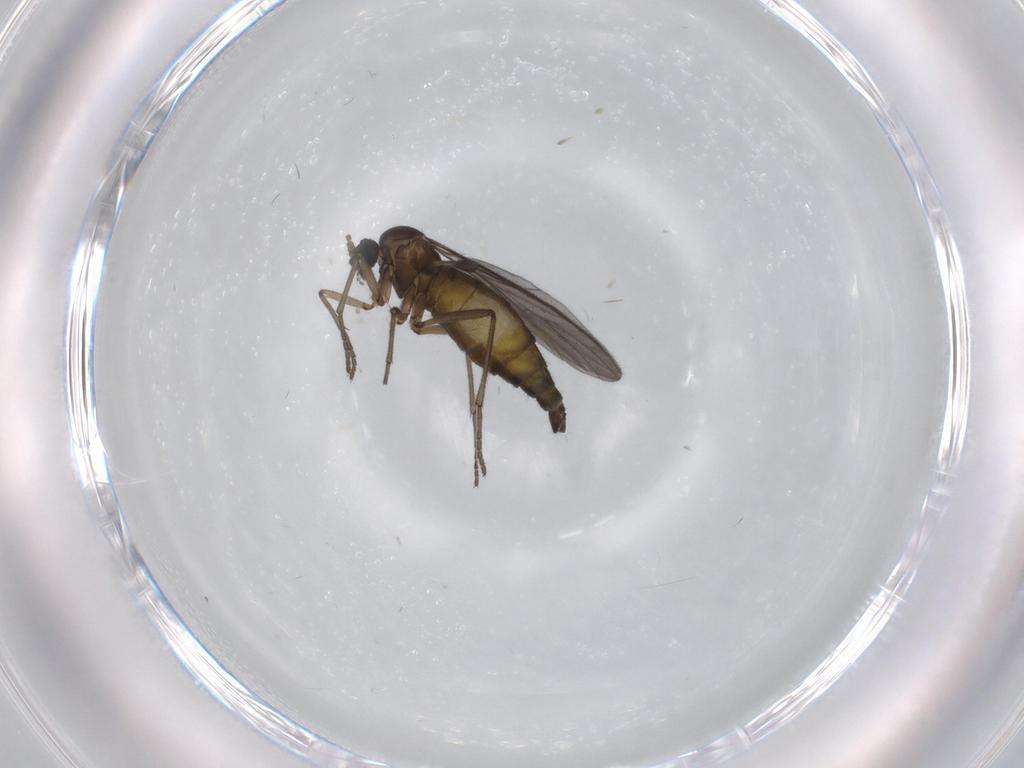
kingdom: Animalia
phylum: Arthropoda
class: Insecta
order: Diptera
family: Sciaridae
